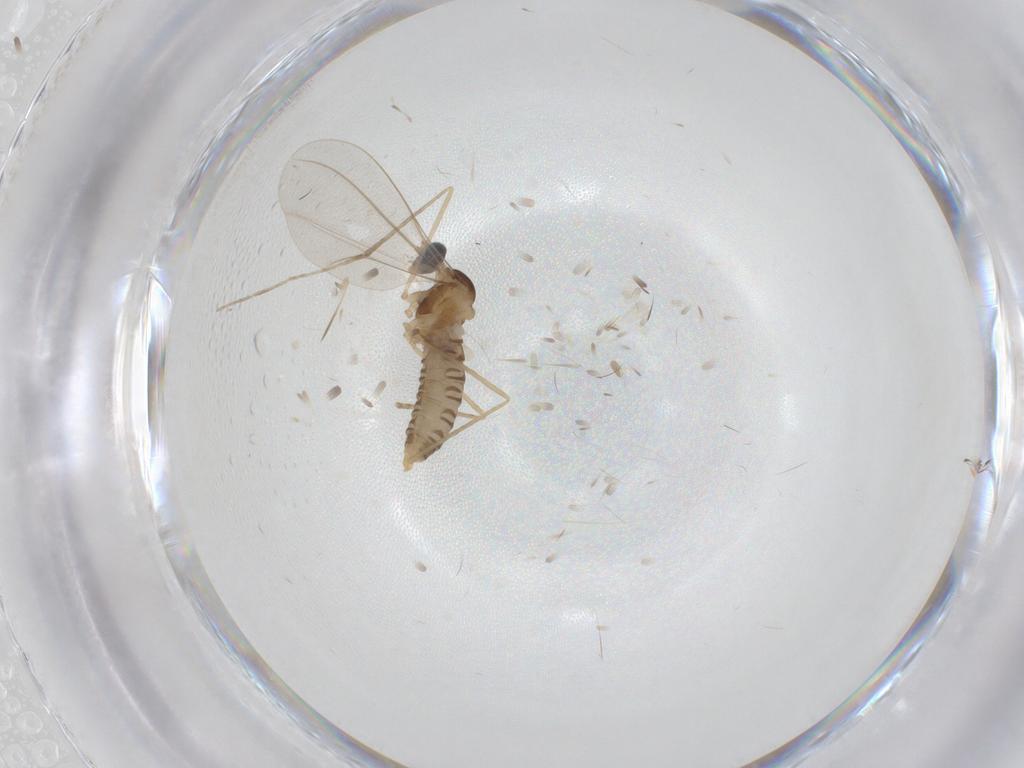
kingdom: Animalia
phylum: Arthropoda
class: Insecta
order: Diptera
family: Cecidomyiidae
